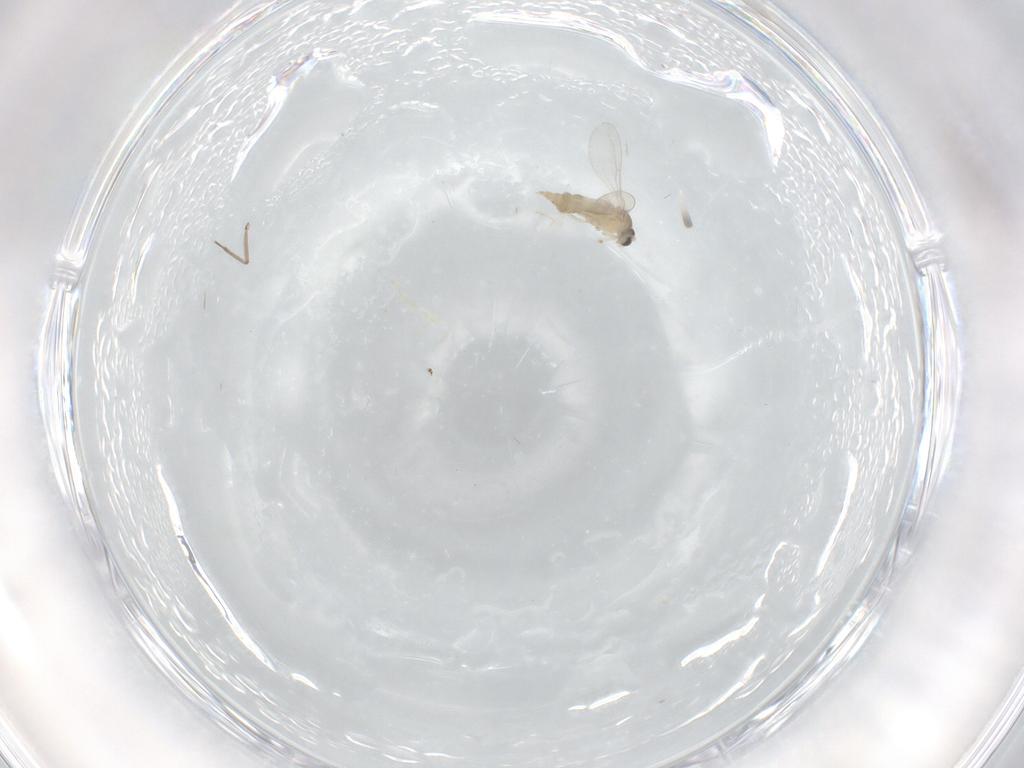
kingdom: Animalia
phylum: Arthropoda
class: Insecta
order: Diptera
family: Cecidomyiidae
